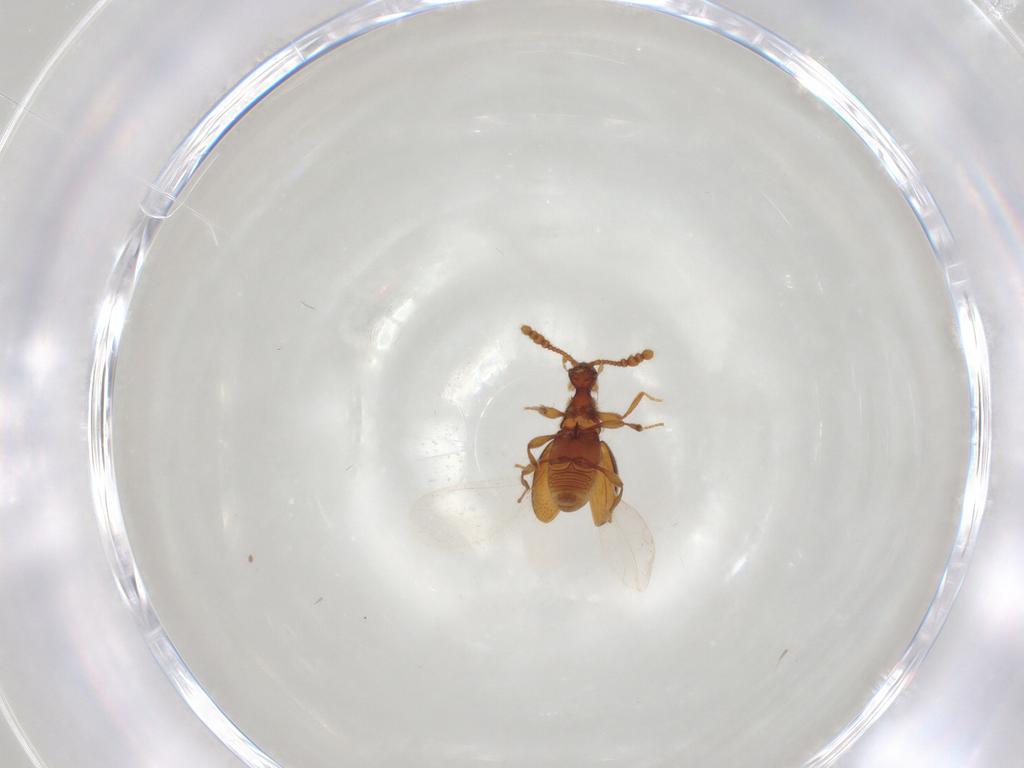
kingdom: Animalia
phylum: Arthropoda
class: Insecta
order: Coleoptera
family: Staphylinidae
